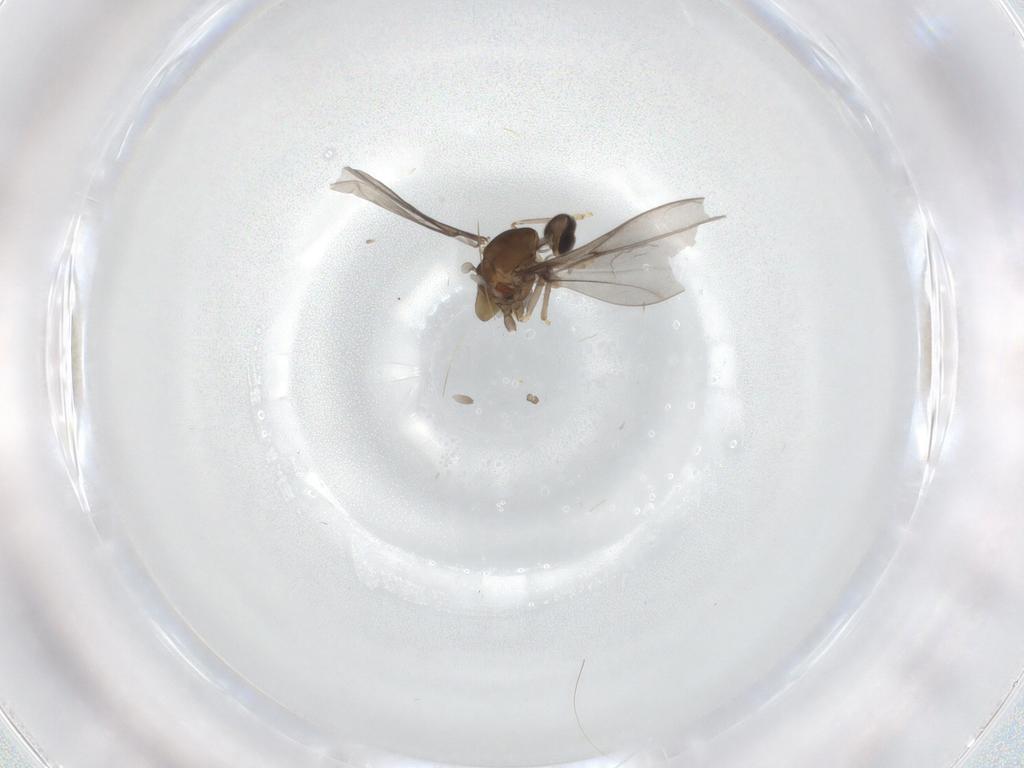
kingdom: Animalia
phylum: Arthropoda
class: Insecta
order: Diptera
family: Cecidomyiidae
